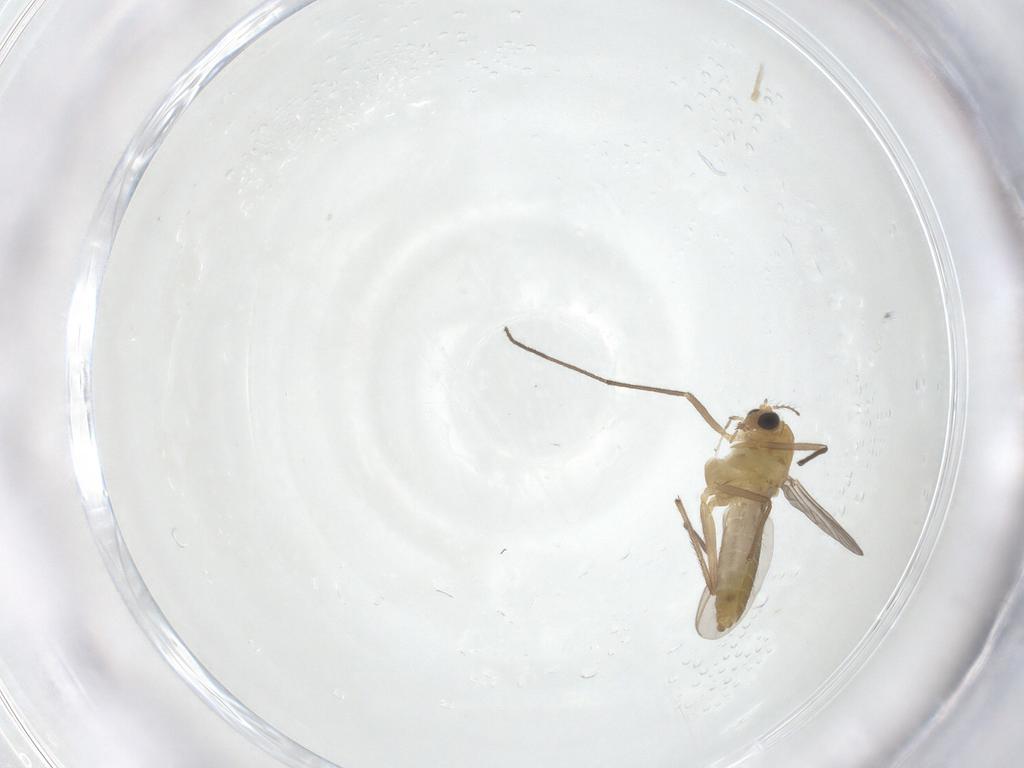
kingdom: Animalia
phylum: Arthropoda
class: Insecta
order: Diptera
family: Chironomidae
